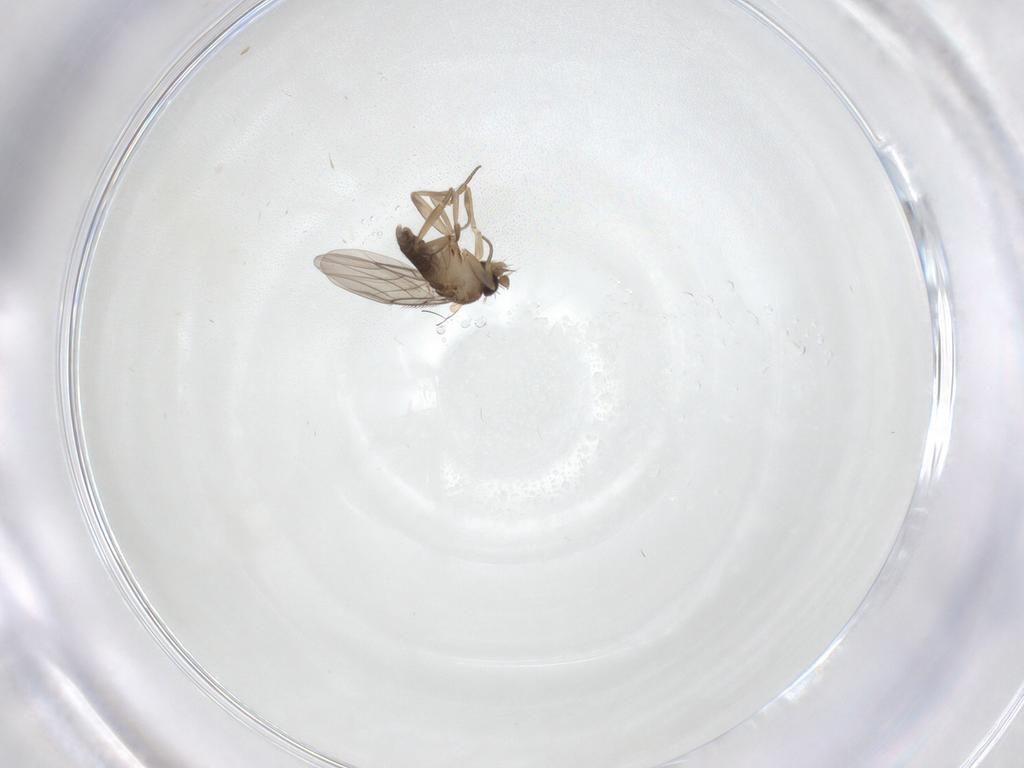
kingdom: Animalia
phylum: Arthropoda
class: Insecta
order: Diptera
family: Phoridae
